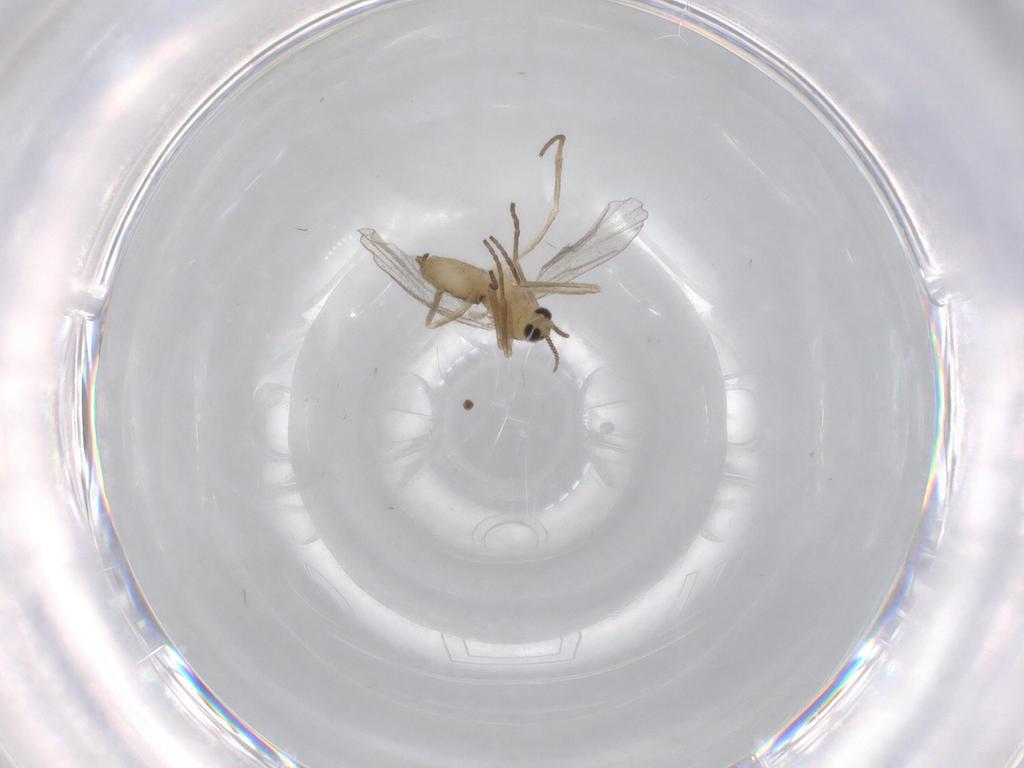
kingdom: Animalia
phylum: Arthropoda
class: Insecta
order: Diptera
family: Cecidomyiidae
